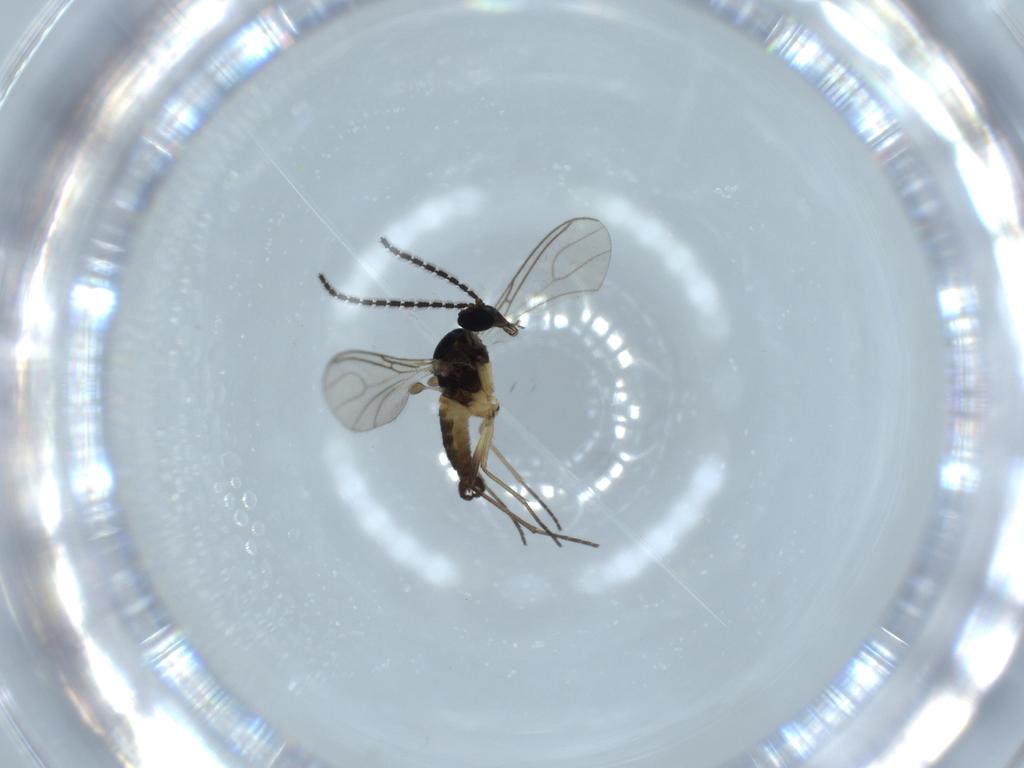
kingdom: Animalia
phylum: Arthropoda
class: Insecta
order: Diptera
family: Sciaridae
